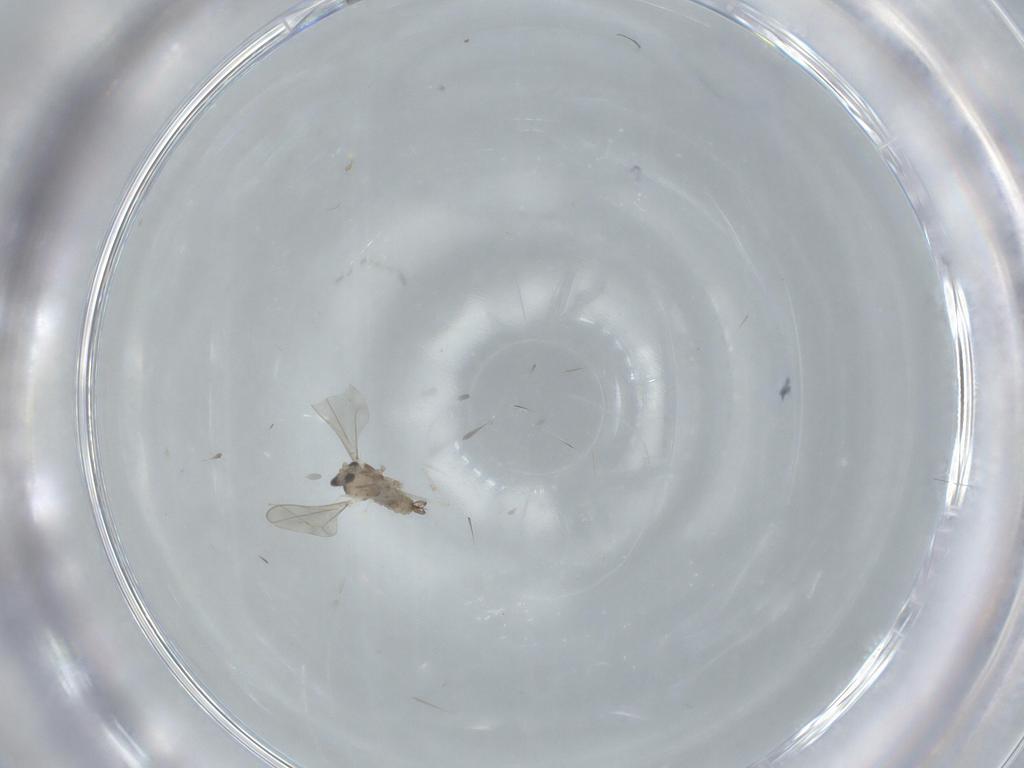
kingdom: Animalia
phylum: Arthropoda
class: Insecta
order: Diptera
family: Cecidomyiidae
